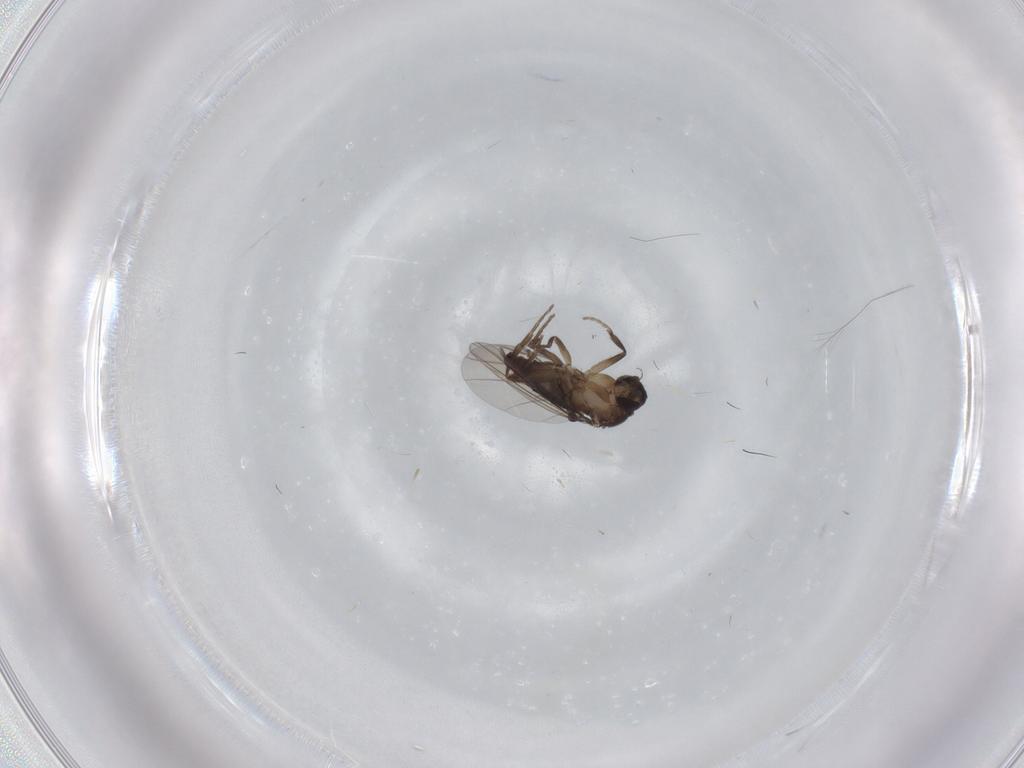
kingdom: Animalia
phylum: Arthropoda
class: Insecta
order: Diptera
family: Phoridae
